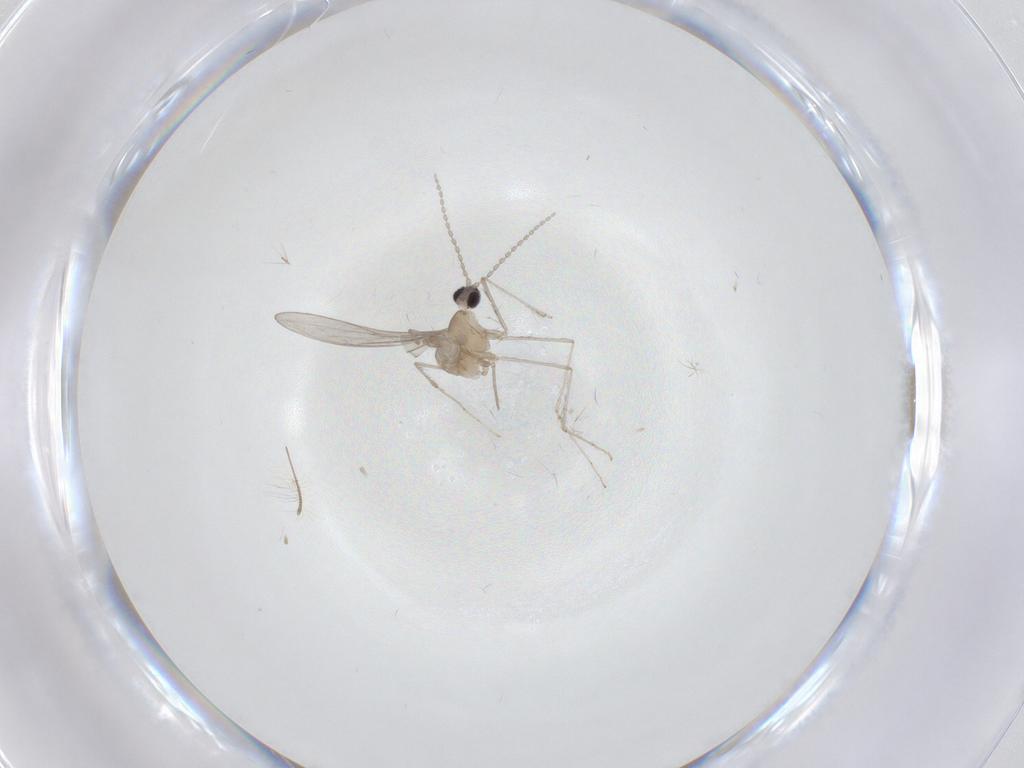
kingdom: Animalia
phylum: Arthropoda
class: Insecta
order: Diptera
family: Cecidomyiidae
